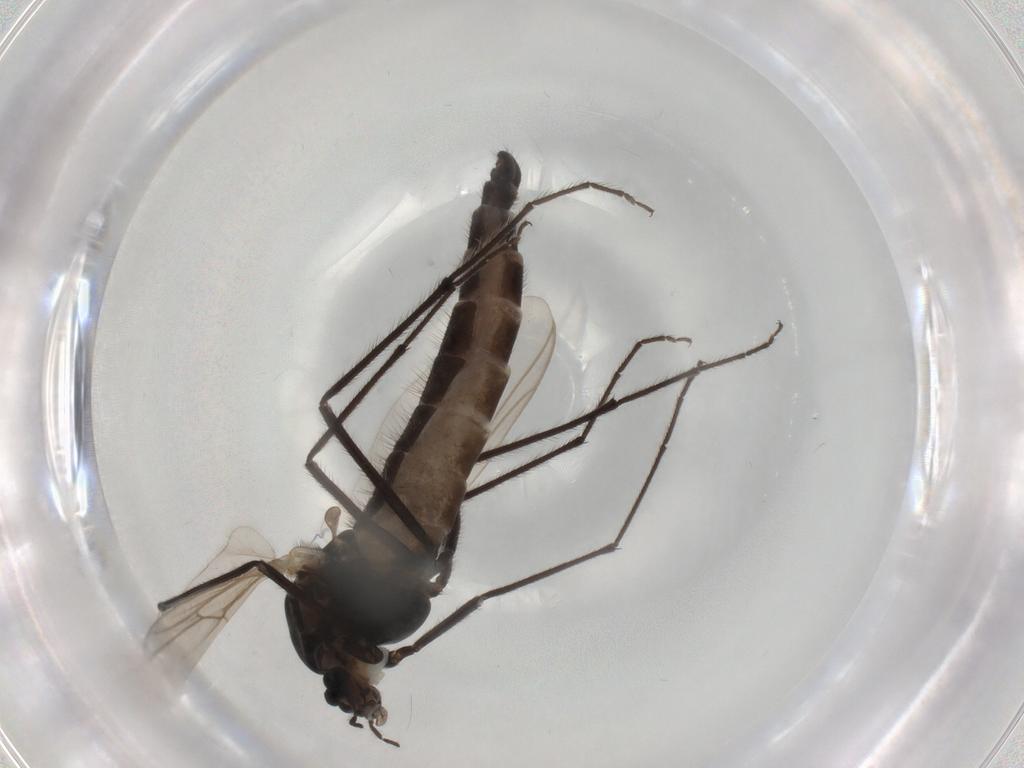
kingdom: Animalia
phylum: Arthropoda
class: Insecta
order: Diptera
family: Chironomidae
